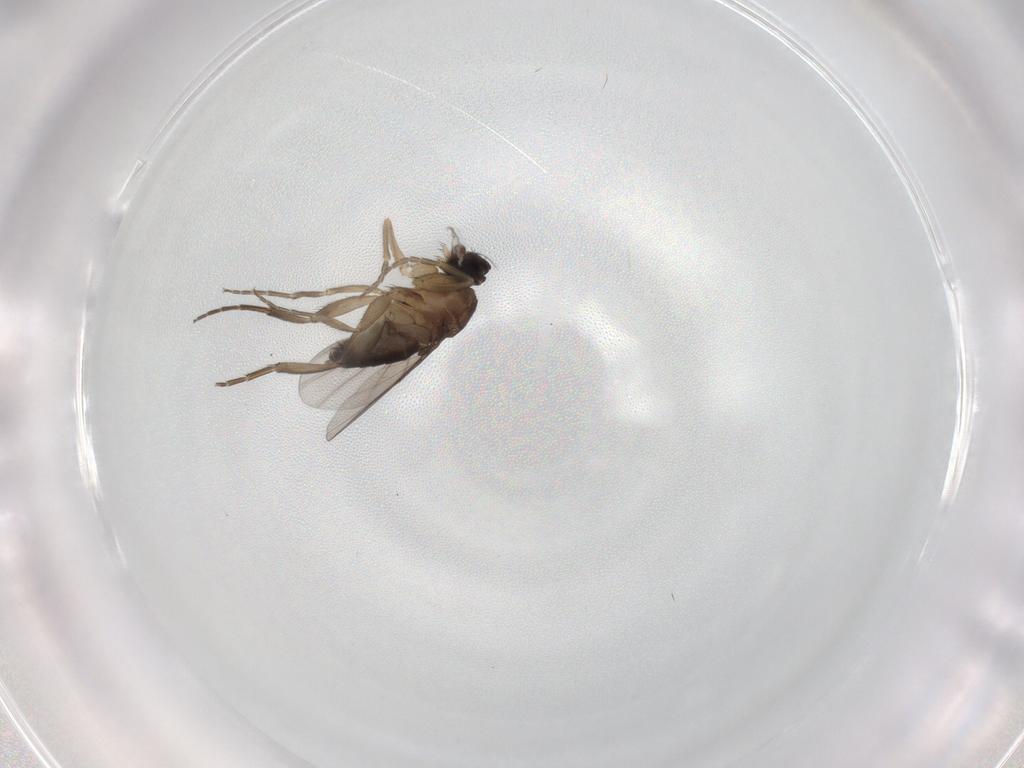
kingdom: Animalia
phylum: Arthropoda
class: Insecta
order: Diptera
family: Phoridae
